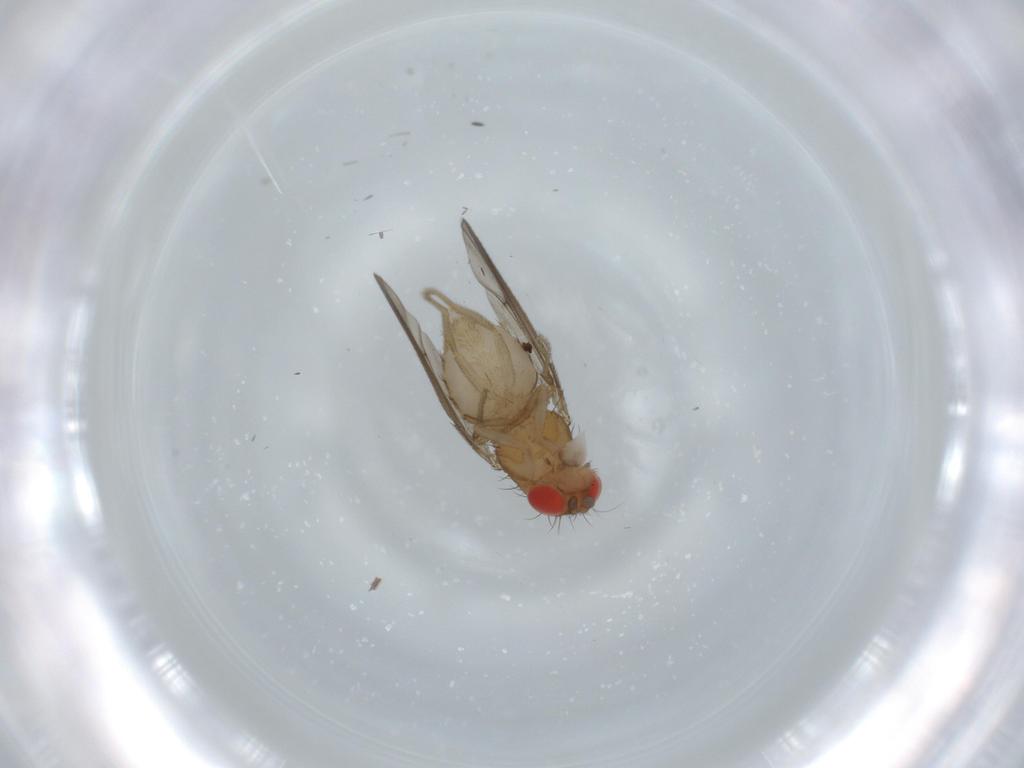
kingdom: Animalia
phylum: Arthropoda
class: Insecta
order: Diptera
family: Drosophilidae
